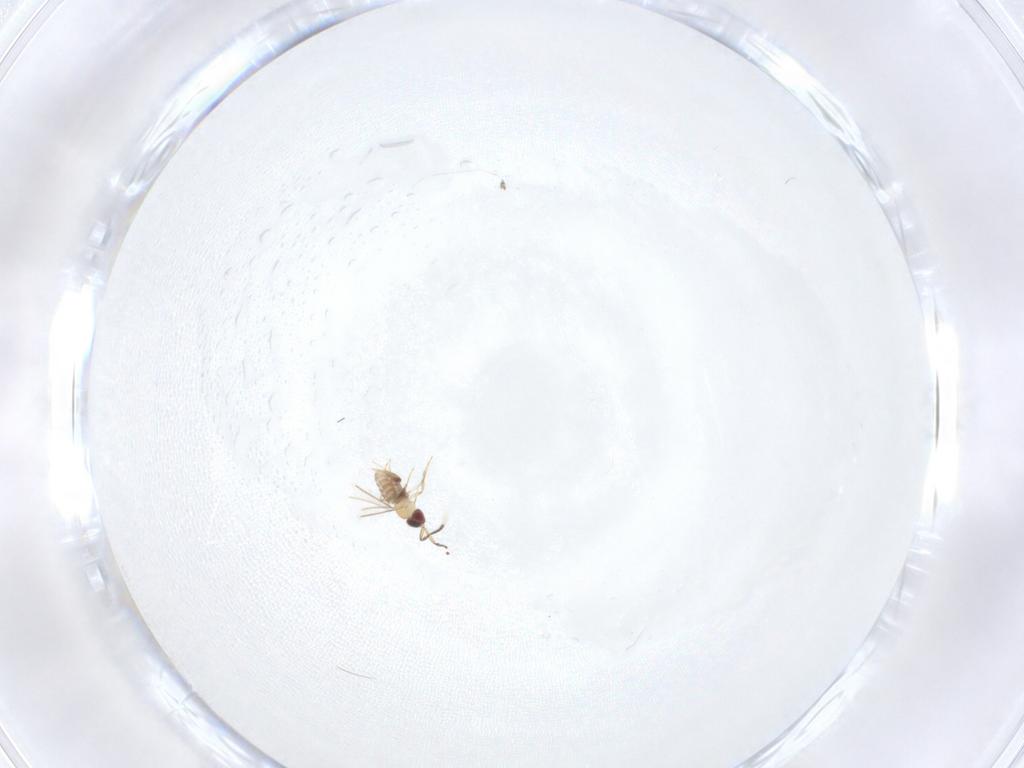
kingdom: Animalia
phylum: Arthropoda
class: Insecta
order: Hymenoptera
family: Mymaridae
